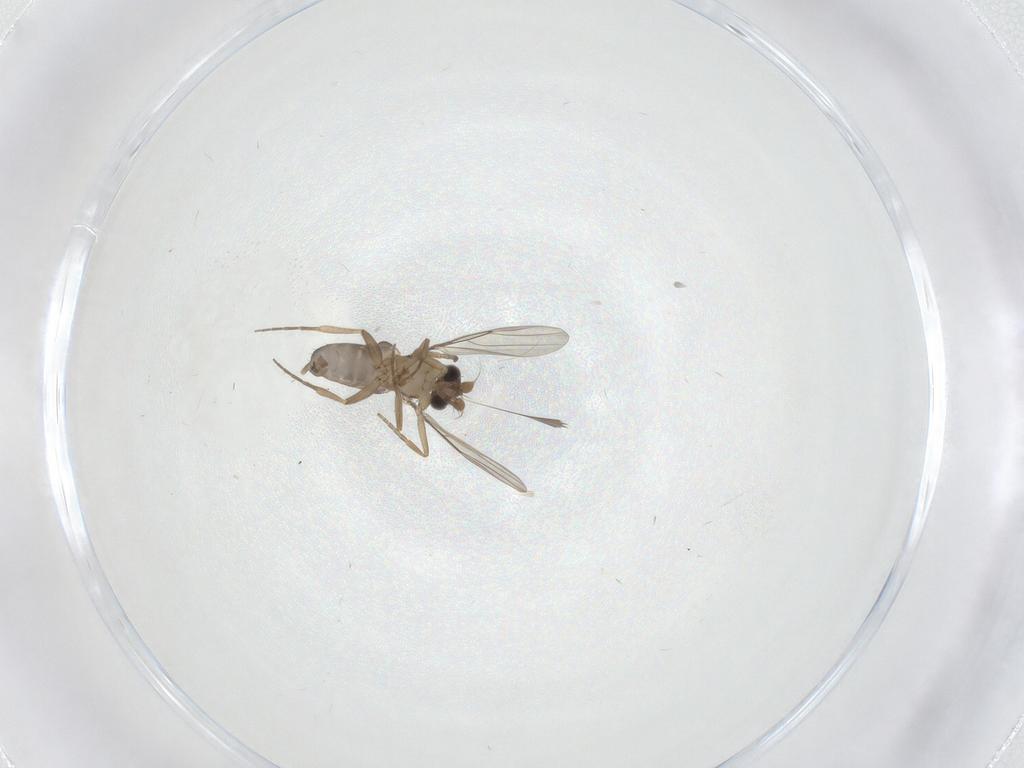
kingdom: Animalia
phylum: Arthropoda
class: Insecta
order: Diptera
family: Phoridae
